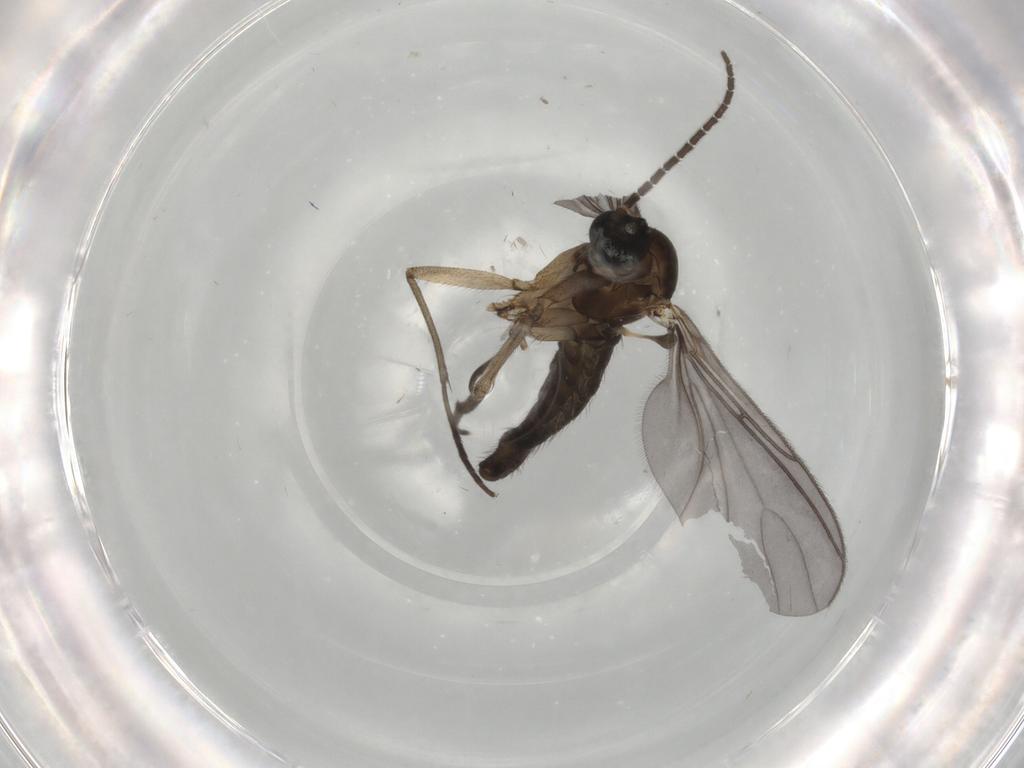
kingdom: Animalia
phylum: Arthropoda
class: Insecta
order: Diptera
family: Sciaridae
